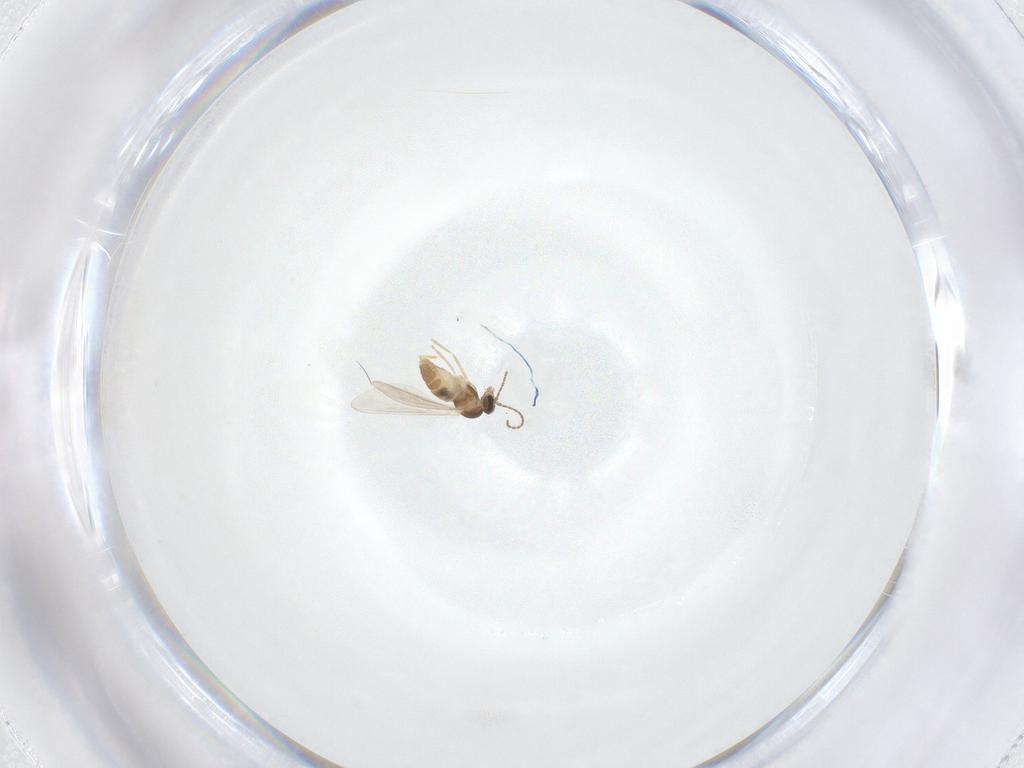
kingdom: Animalia
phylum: Arthropoda
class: Insecta
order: Diptera
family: Cecidomyiidae
